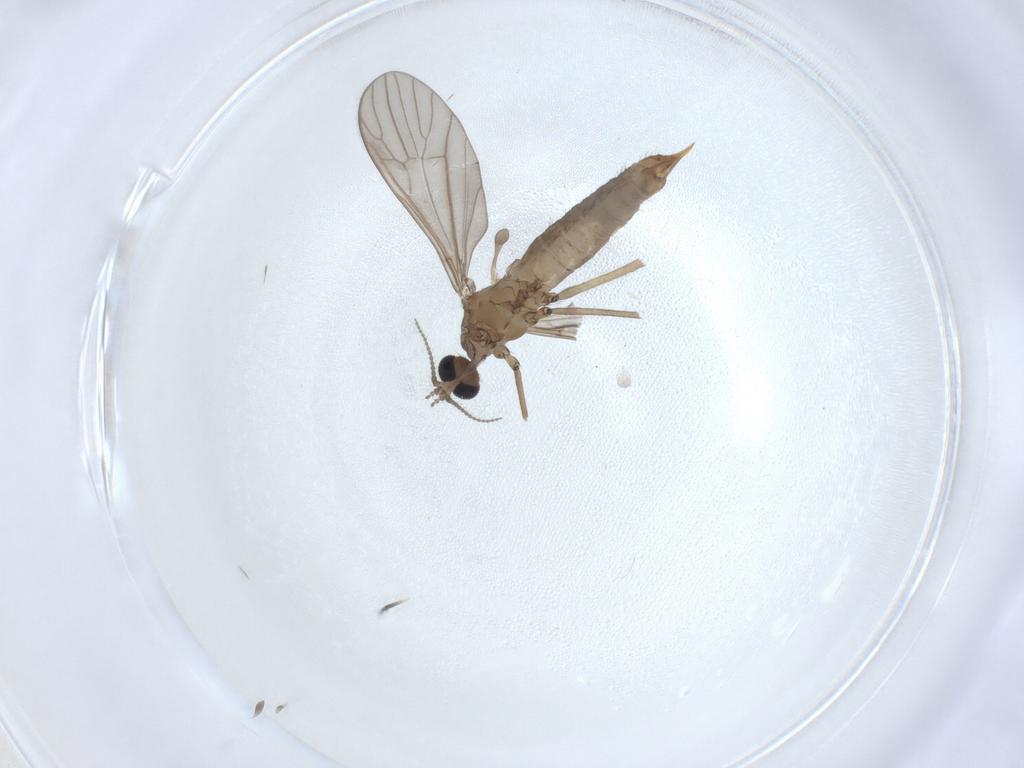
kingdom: Animalia
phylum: Arthropoda
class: Insecta
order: Diptera
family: Limoniidae
